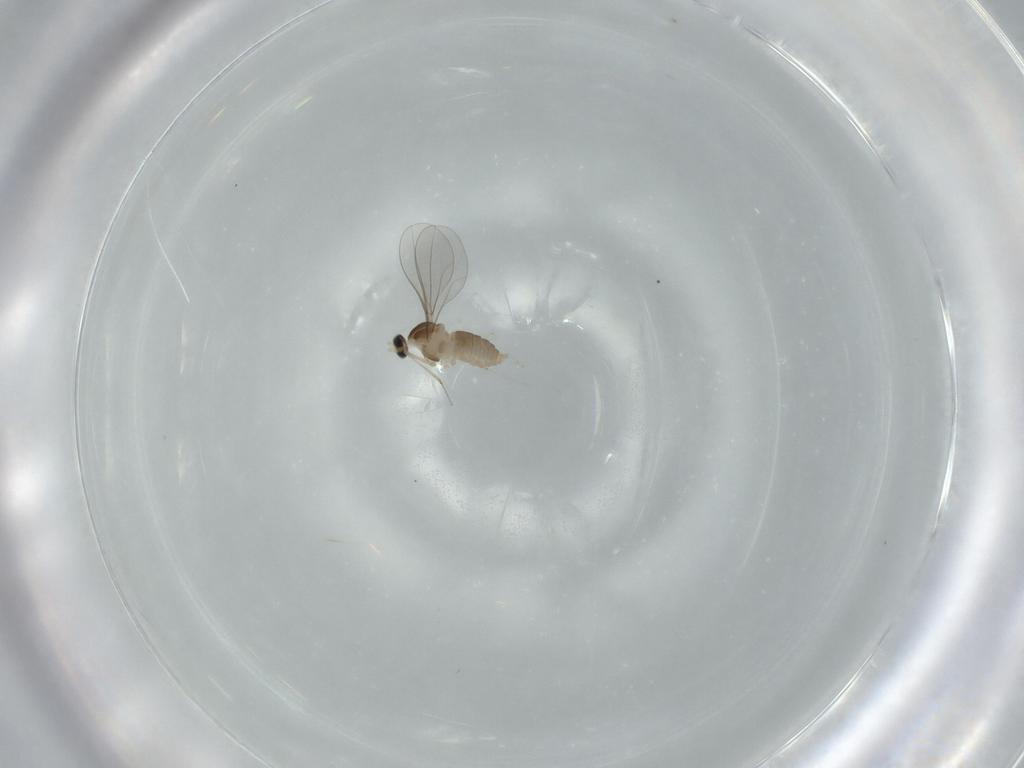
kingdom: Animalia
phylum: Arthropoda
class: Insecta
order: Diptera
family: Cecidomyiidae
